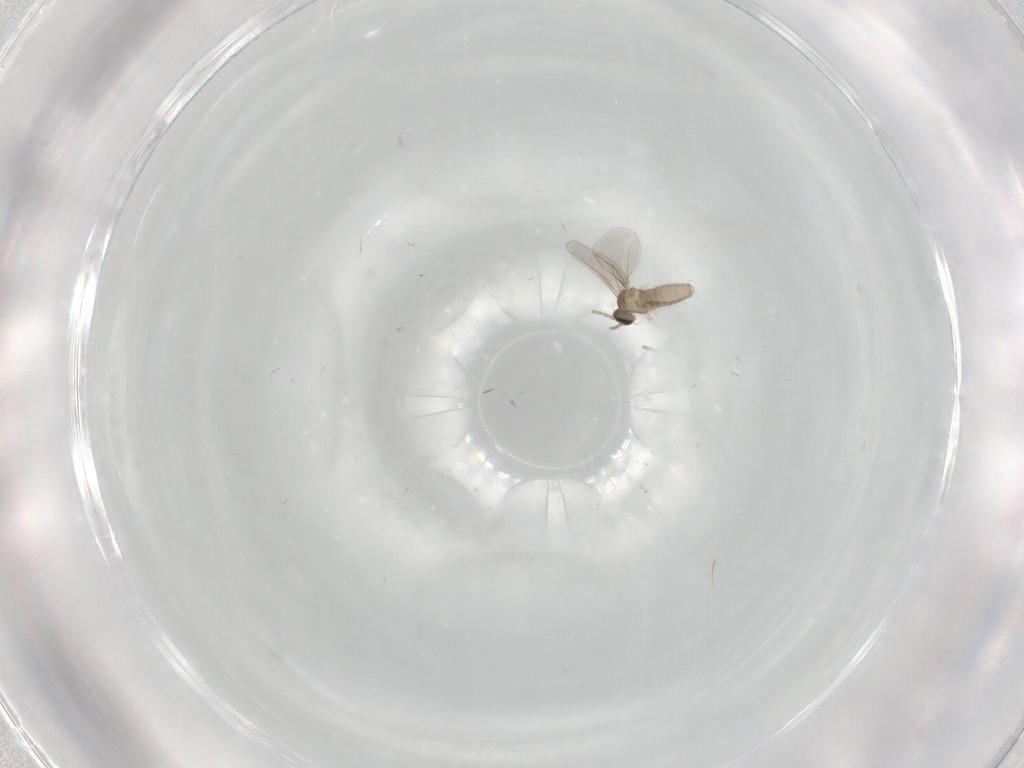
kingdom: Animalia
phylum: Arthropoda
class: Insecta
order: Diptera
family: Cecidomyiidae
